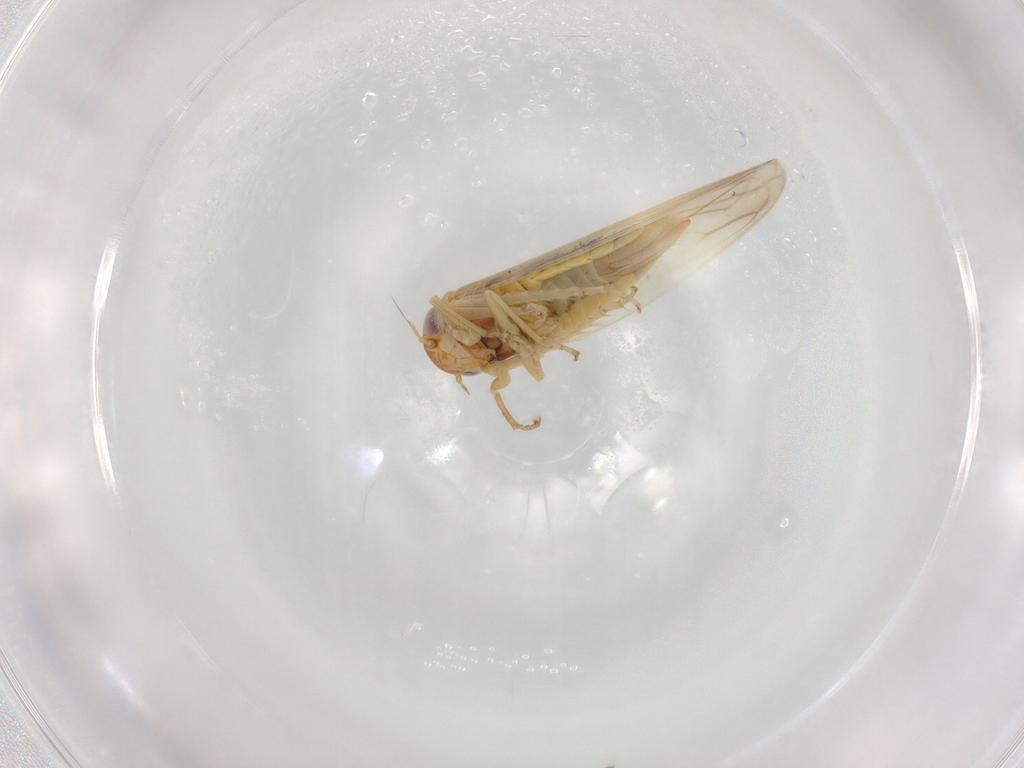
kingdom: Animalia
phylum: Arthropoda
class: Insecta
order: Hemiptera
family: Cicadellidae
